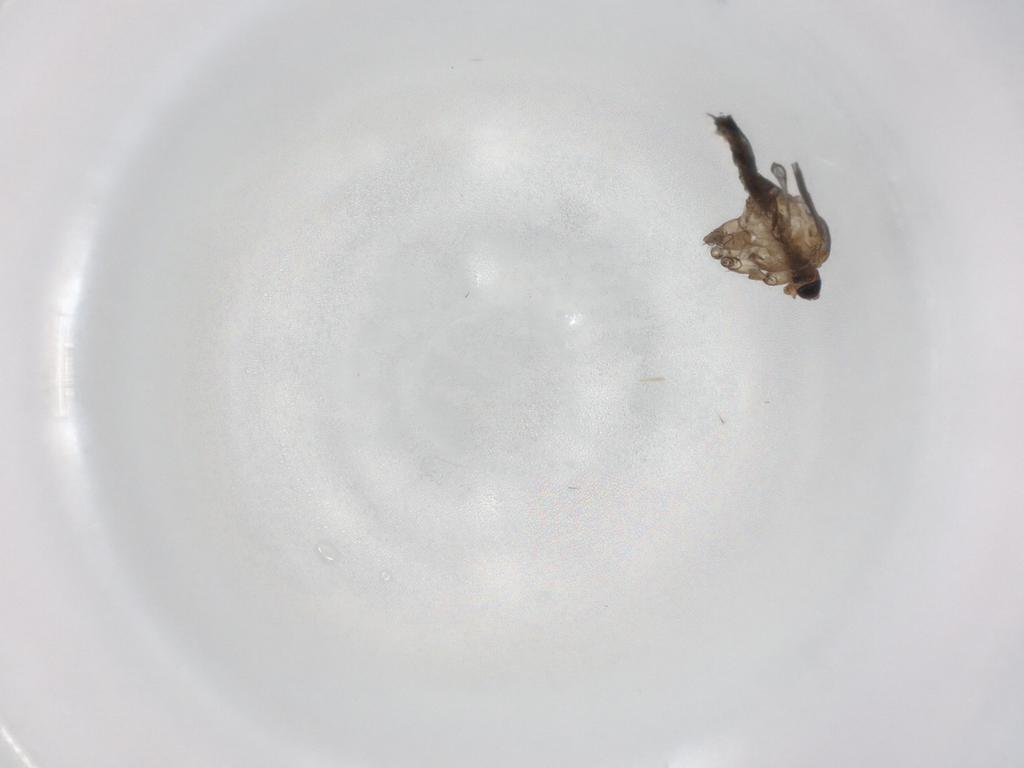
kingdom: Animalia
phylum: Arthropoda
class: Insecta
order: Diptera
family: Limoniidae
